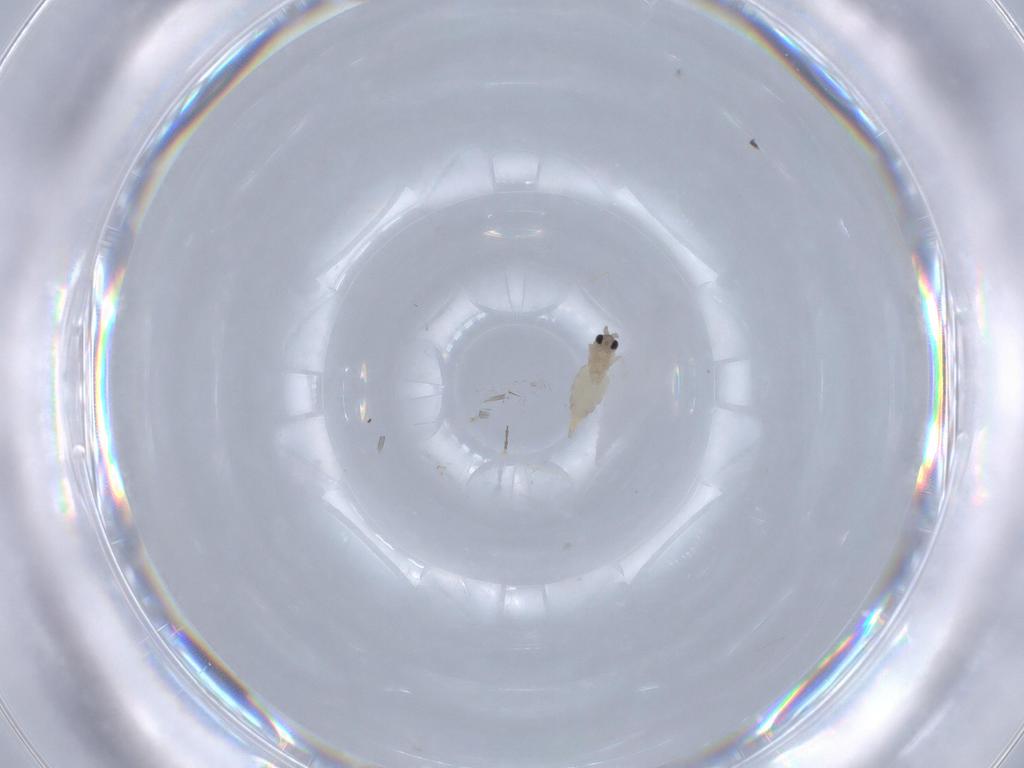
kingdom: Animalia
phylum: Arthropoda
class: Insecta
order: Diptera
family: Cecidomyiidae
